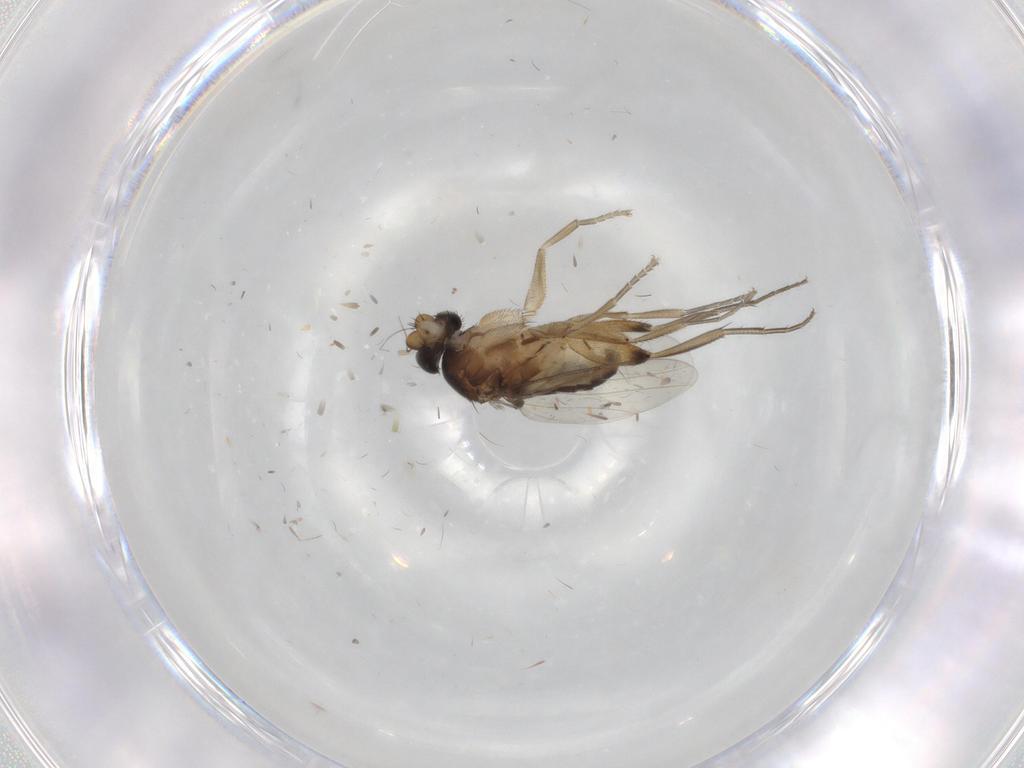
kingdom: Animalia
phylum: Arthropoda
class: Insecta
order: Diptera
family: Phoridae
